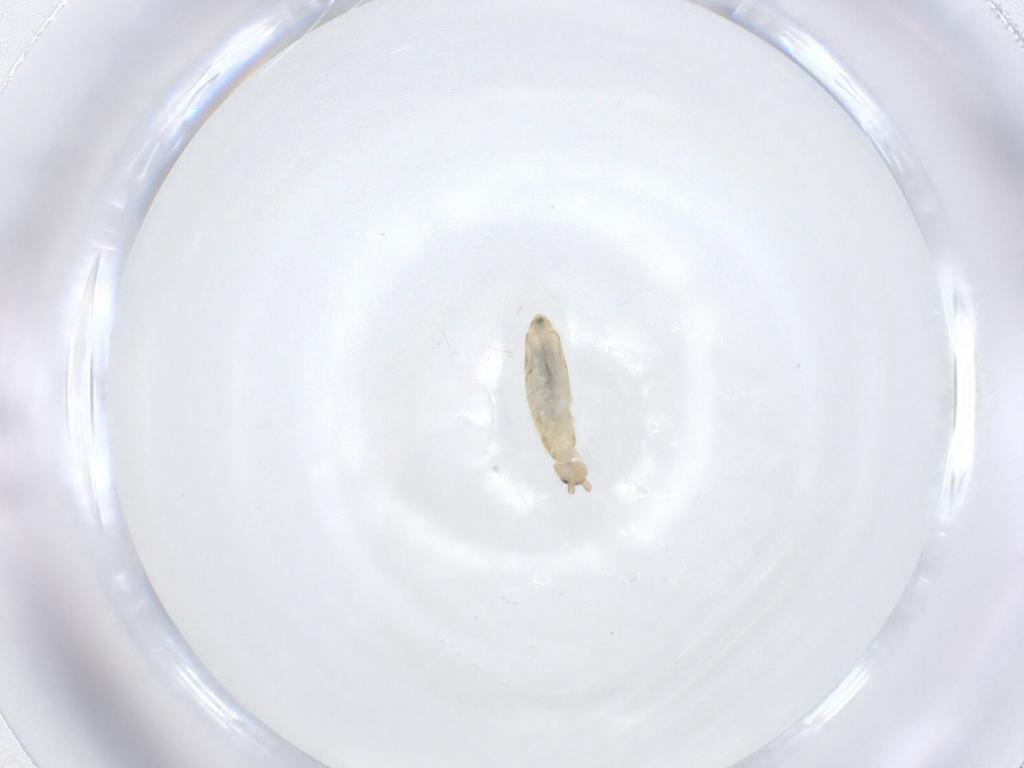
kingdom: Animalia
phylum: Arthropoda
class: Collembola
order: Entomobryomorpha
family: Entomobryidae
